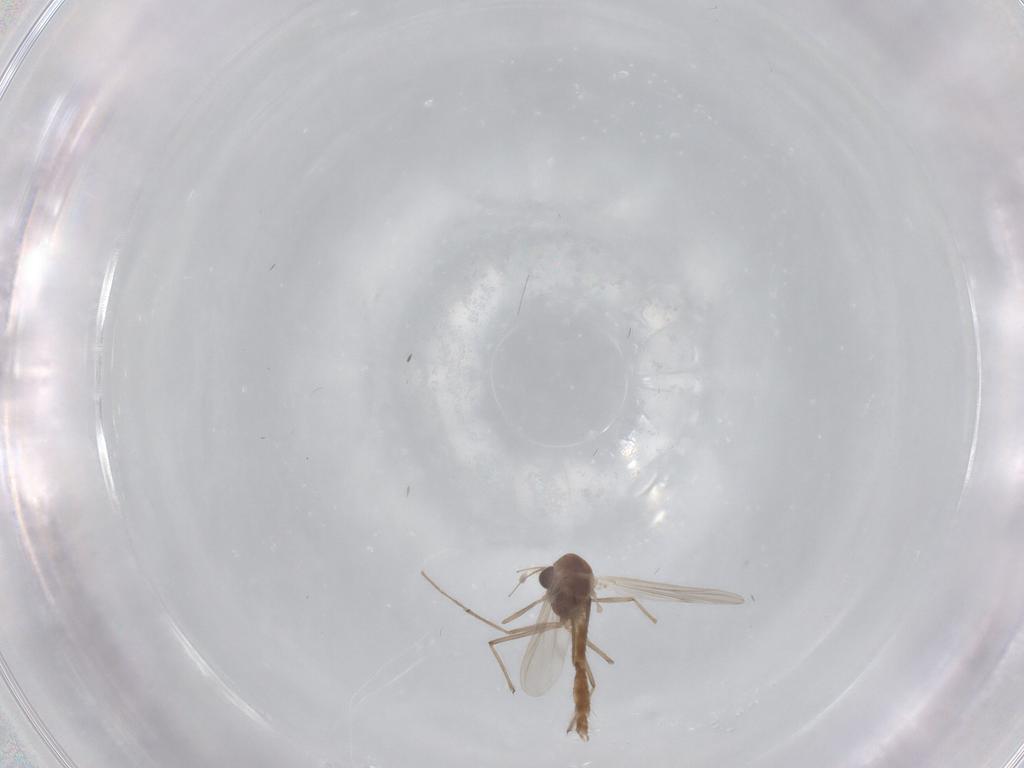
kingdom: Animalia
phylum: Arthropoda
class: Insecta
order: Diptera
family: Chironomidae
